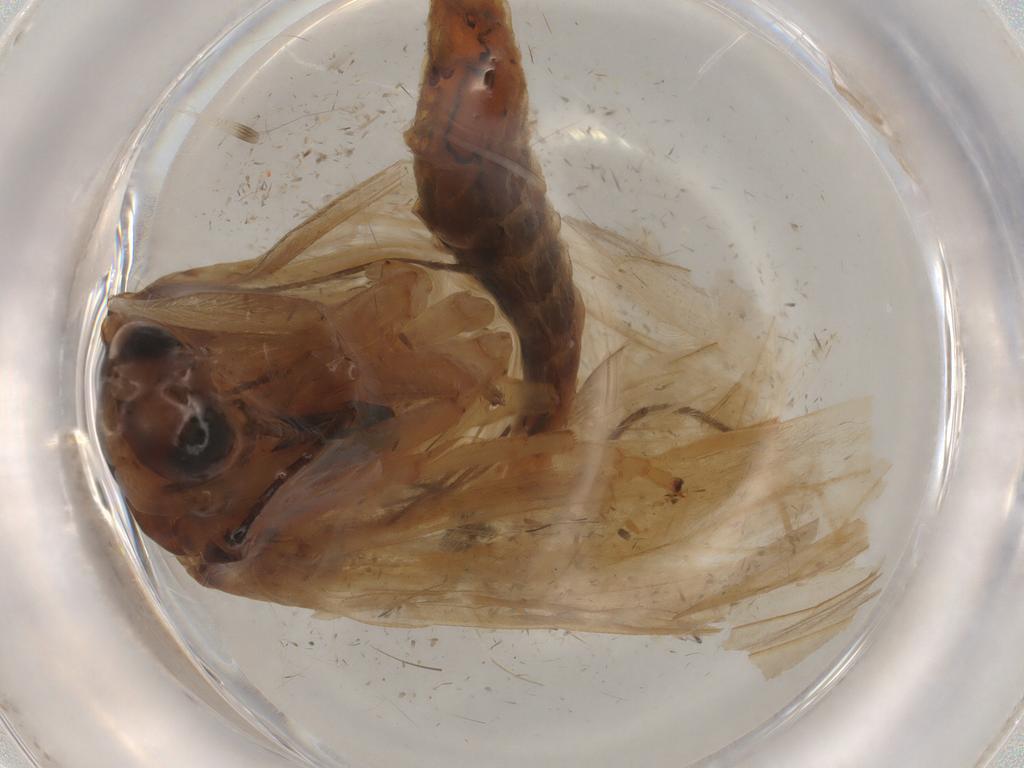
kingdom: Animalia
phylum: Arthropoda
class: Insecta
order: Lepidoptera
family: Tineidae
